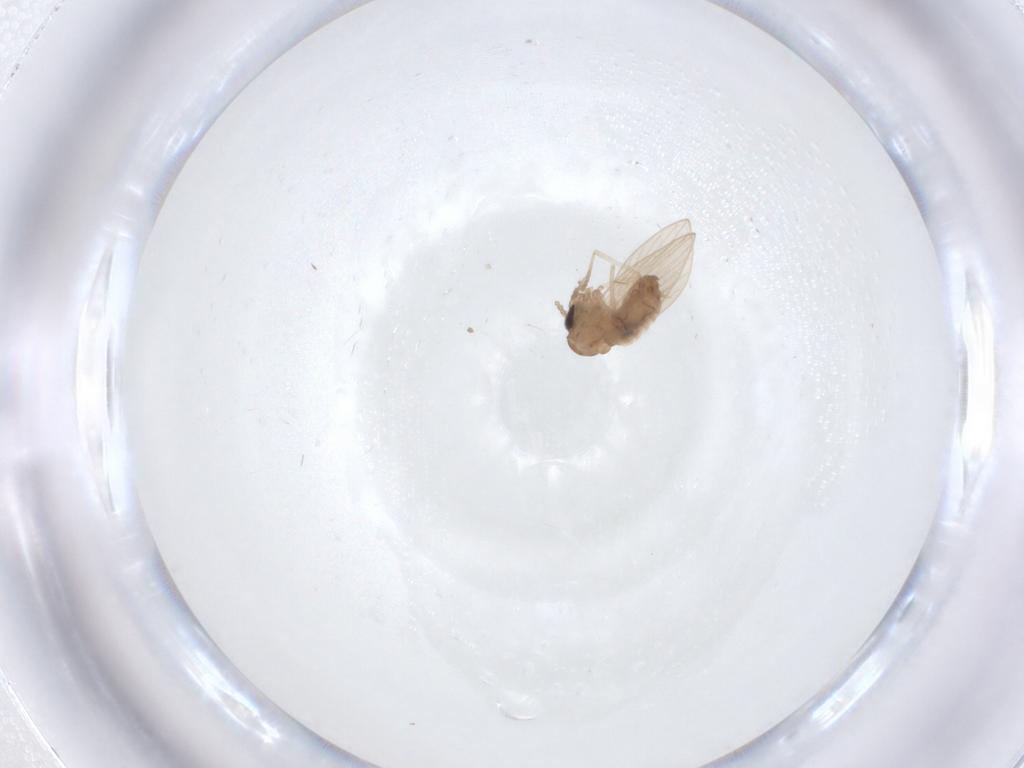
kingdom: Animalia
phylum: Arthropoda
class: Insecta
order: Diptera
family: Psychodidae
